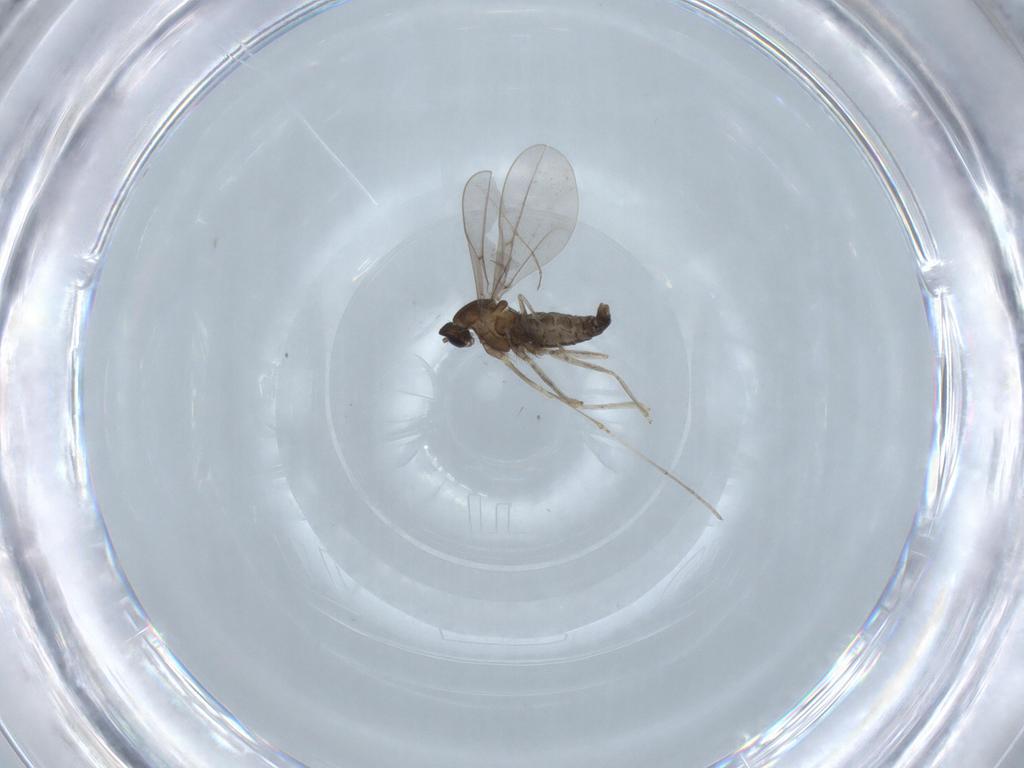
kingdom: Animalia
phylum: Arthropoda
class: Insecta
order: Diptera
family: Cecidomyiidae
